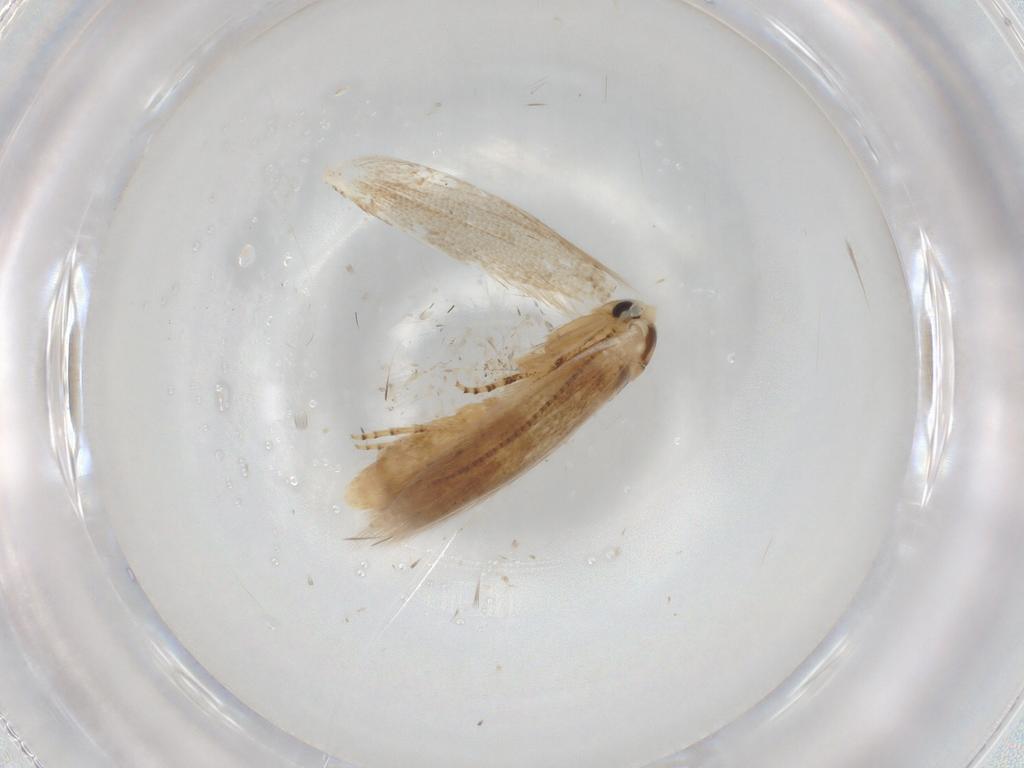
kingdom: Animalia
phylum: Arthropoda
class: Insecta
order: Lepidoptera
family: Bucculatricidae
